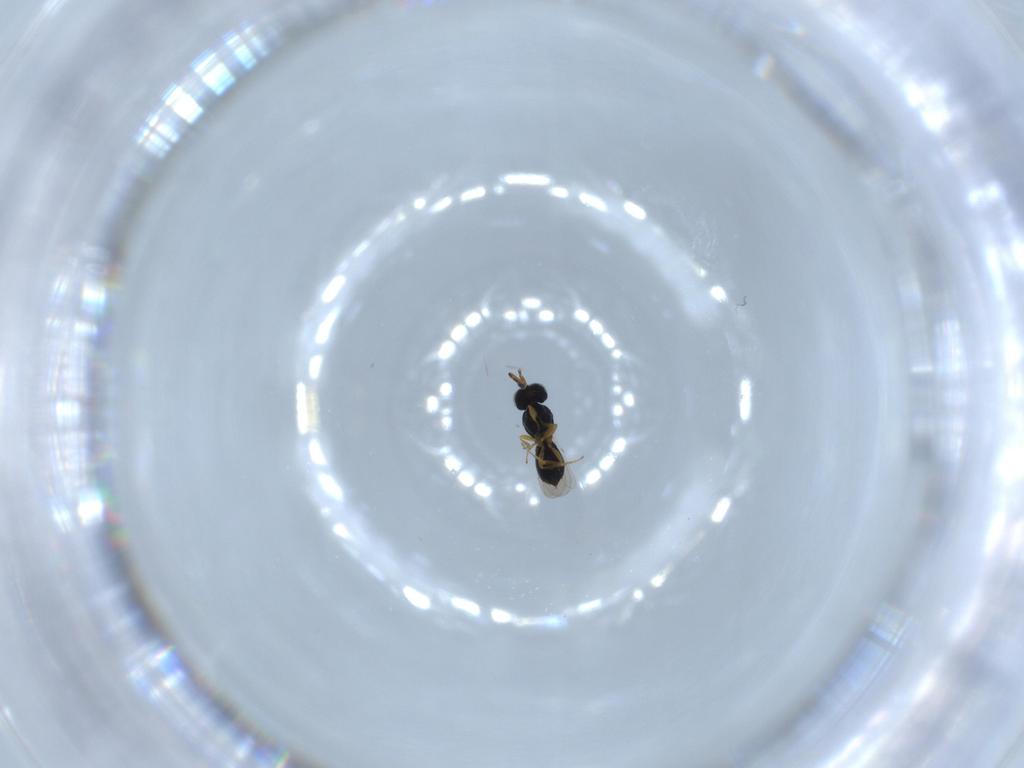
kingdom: Animalia
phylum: Arthropoda
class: Insecta
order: Hymenoptera
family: Scelionidae
